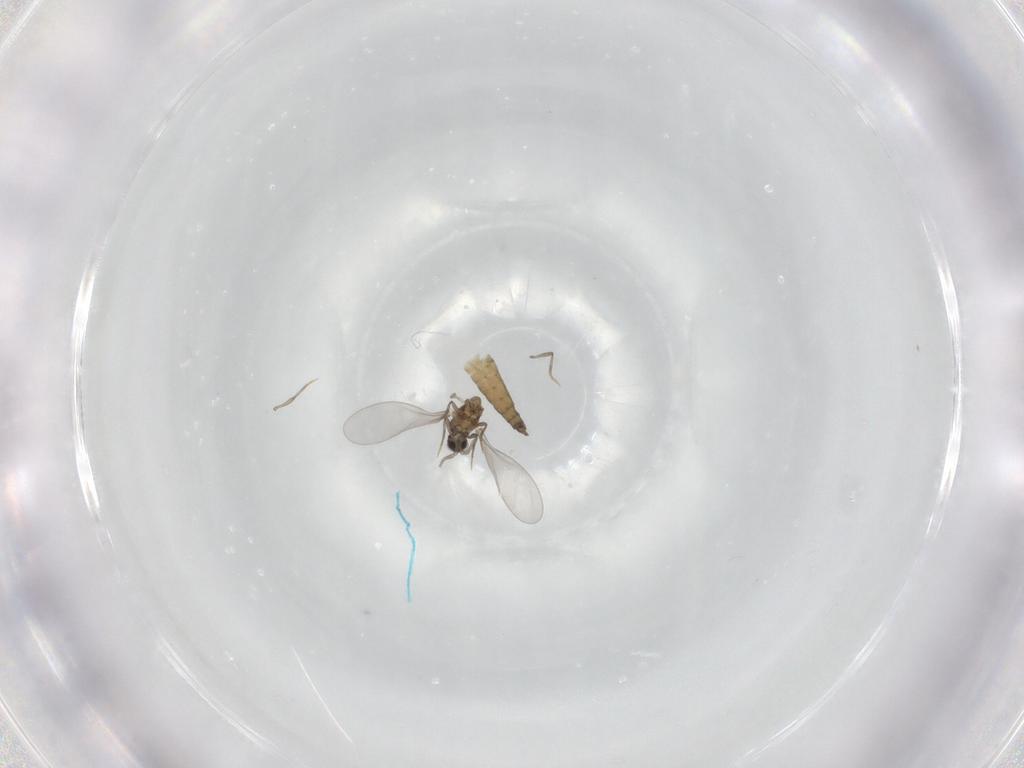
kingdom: Animalia
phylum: Arthropoda
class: Insecta
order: Diptera
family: Cecidomyiidae
